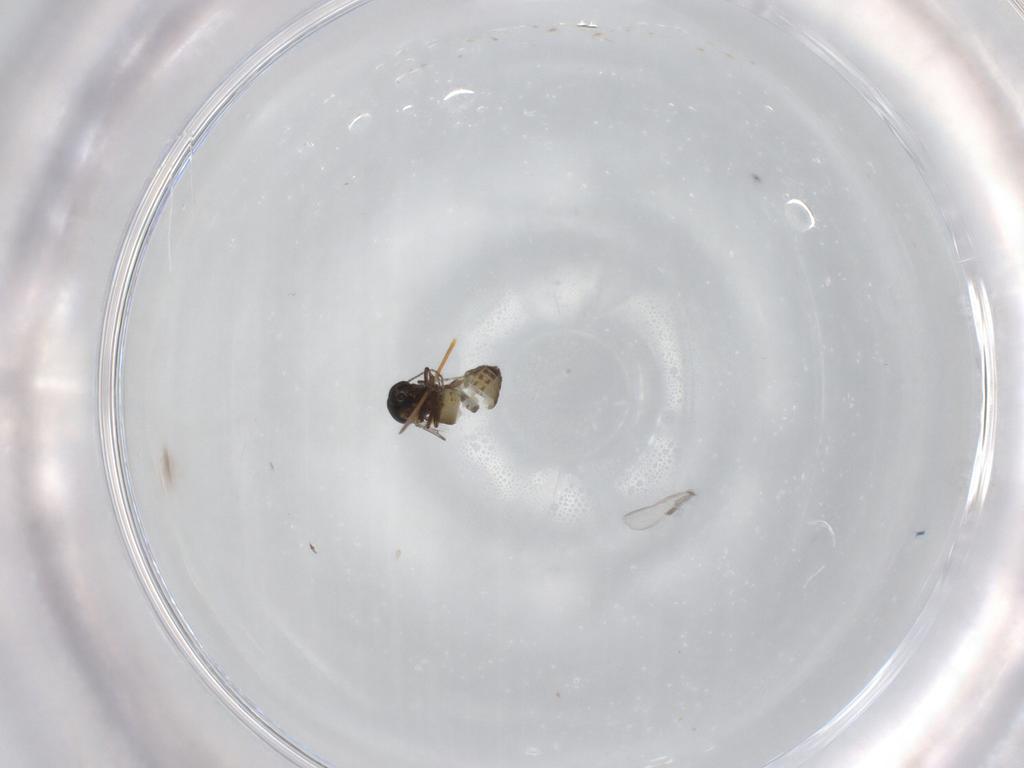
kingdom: Animalia
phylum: Arthropoda
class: Insecta
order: Diptera
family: Ceratopogonidae
